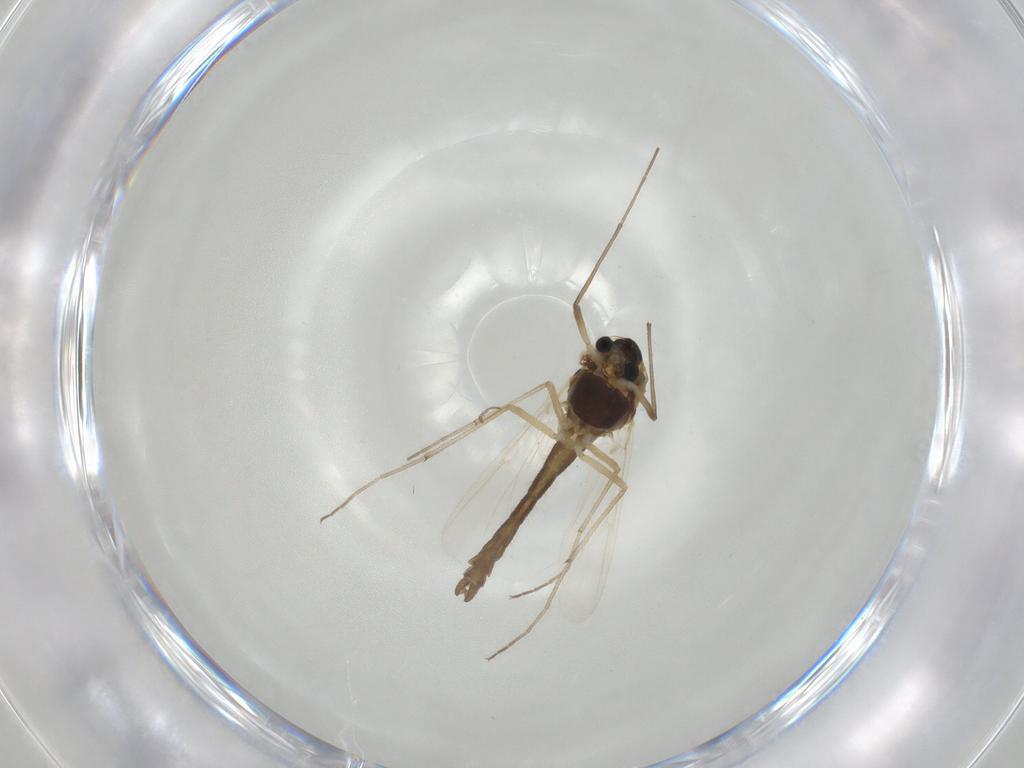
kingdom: Animalia
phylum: Arthropoda
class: Insecta
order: Diptera
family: Chironomidae
